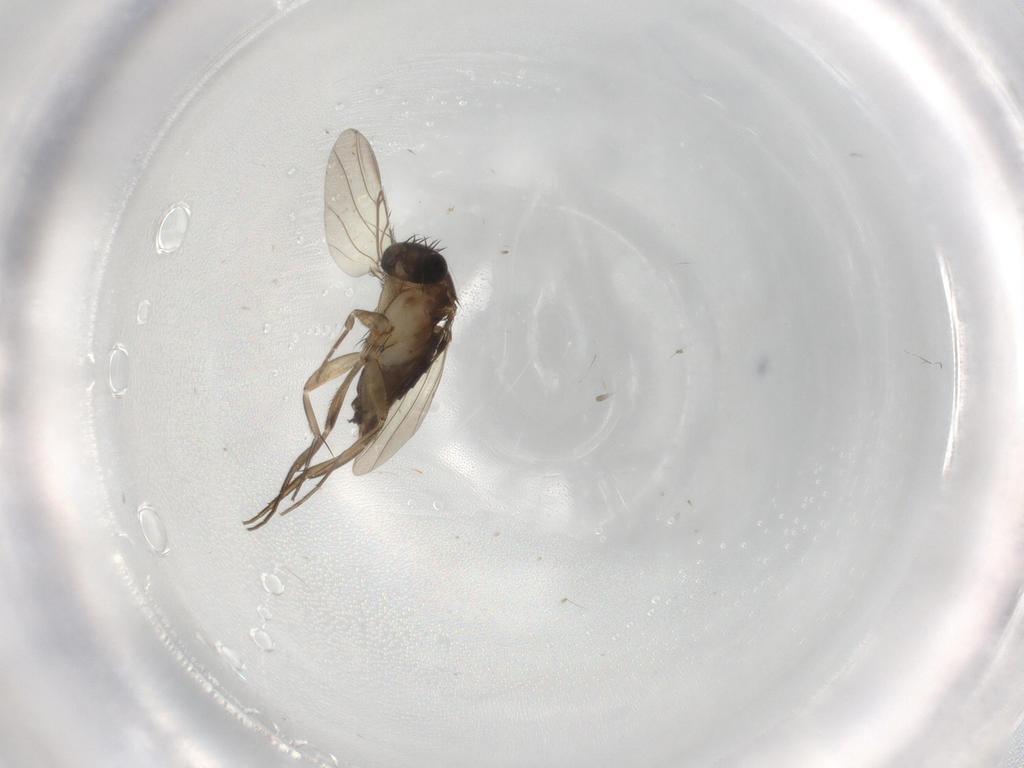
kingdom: Animalia
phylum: Arthropoda
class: Insecta
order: Diptera
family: Phoridae
